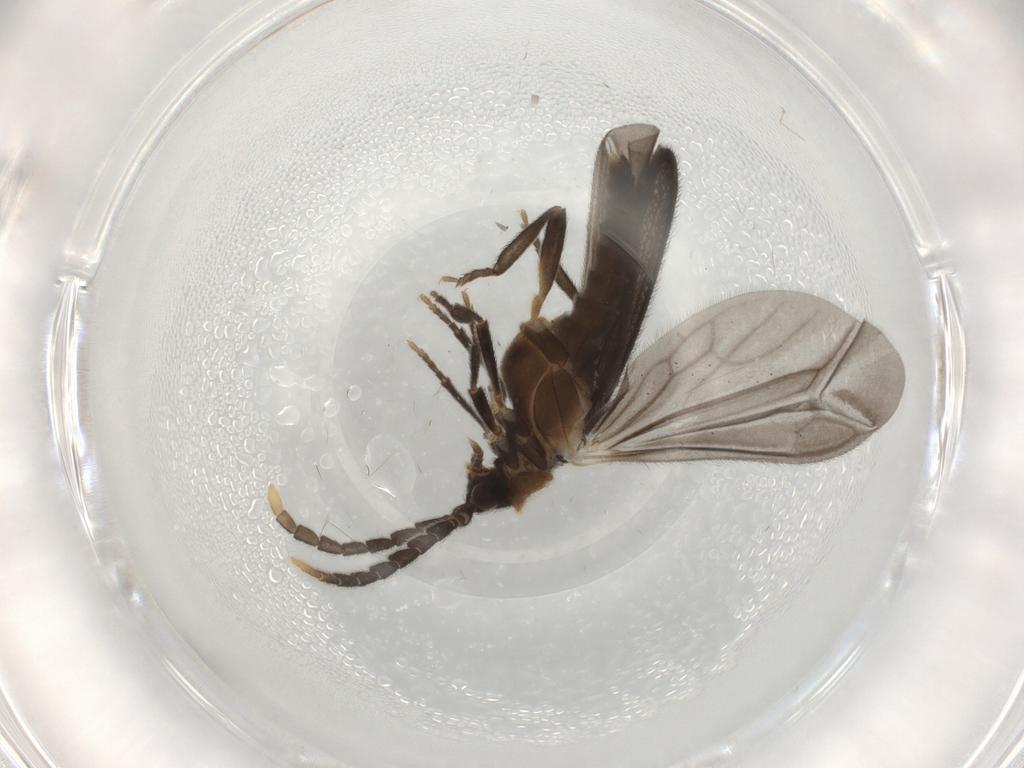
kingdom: Animalia
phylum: Arthropoda
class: Insecta
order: Coleoptera
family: Lycidae
